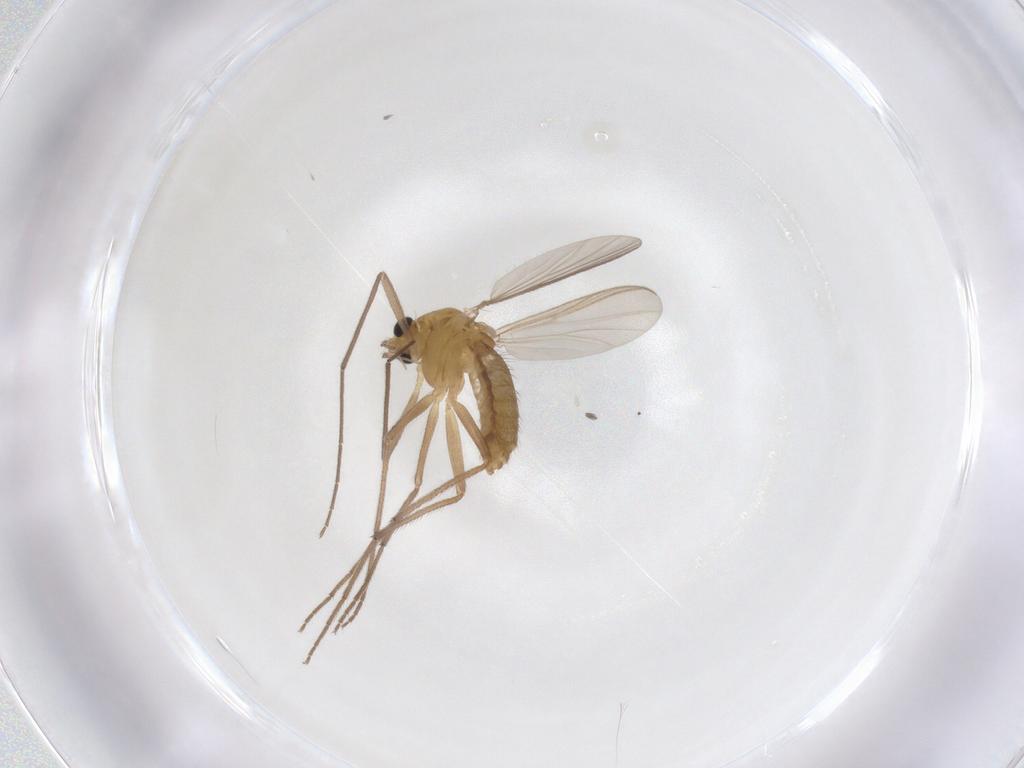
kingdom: Animalia
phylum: Arthropoda
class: Insecta
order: Diptera
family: Chironomidae
